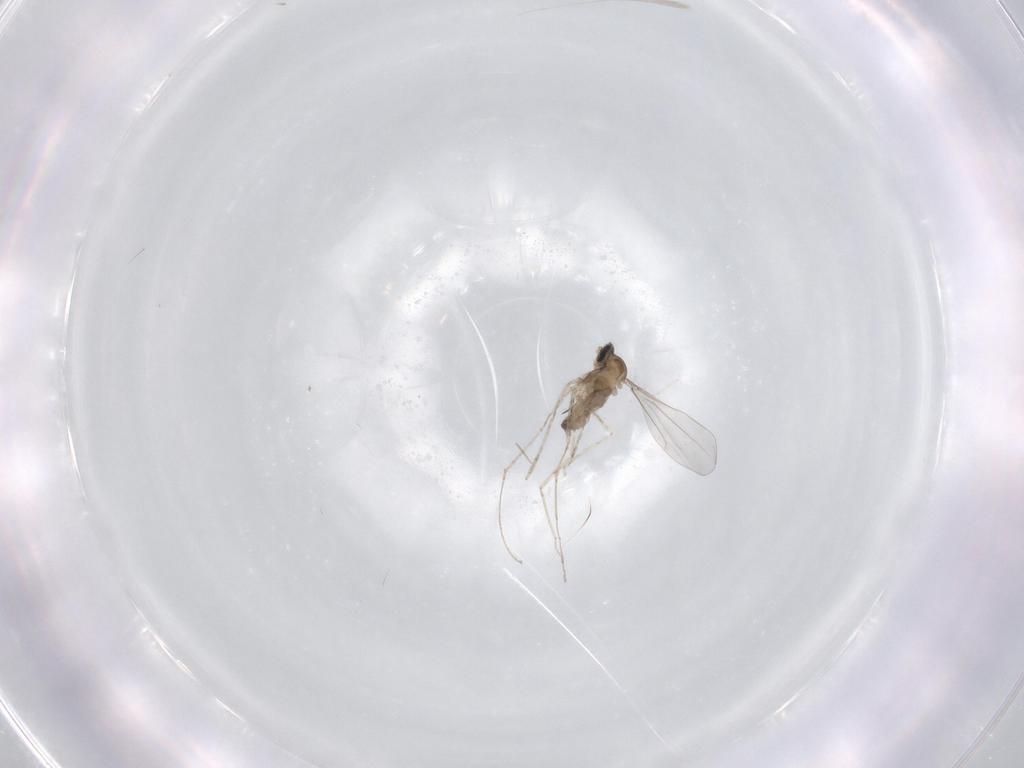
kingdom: Animalia
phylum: Arthropoda
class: Insecta
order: Diptera
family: Cecidomyiidae
